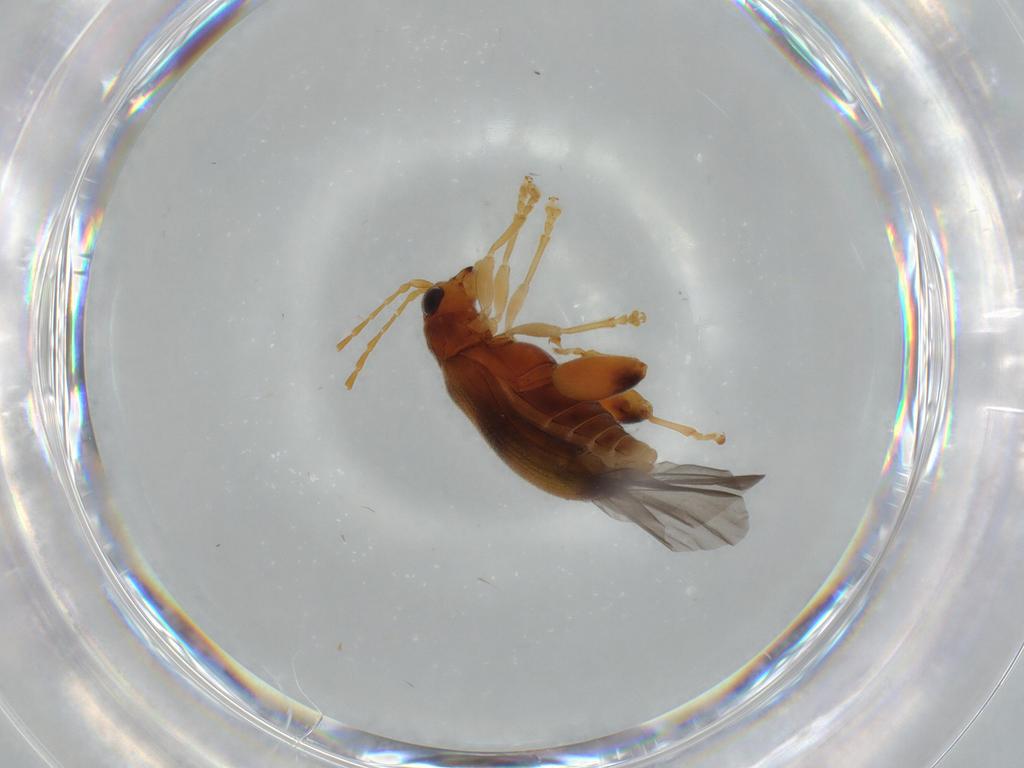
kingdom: Animalia
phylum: Arthropoda
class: Insecta
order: Coleoptera
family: Chrysomelidae
